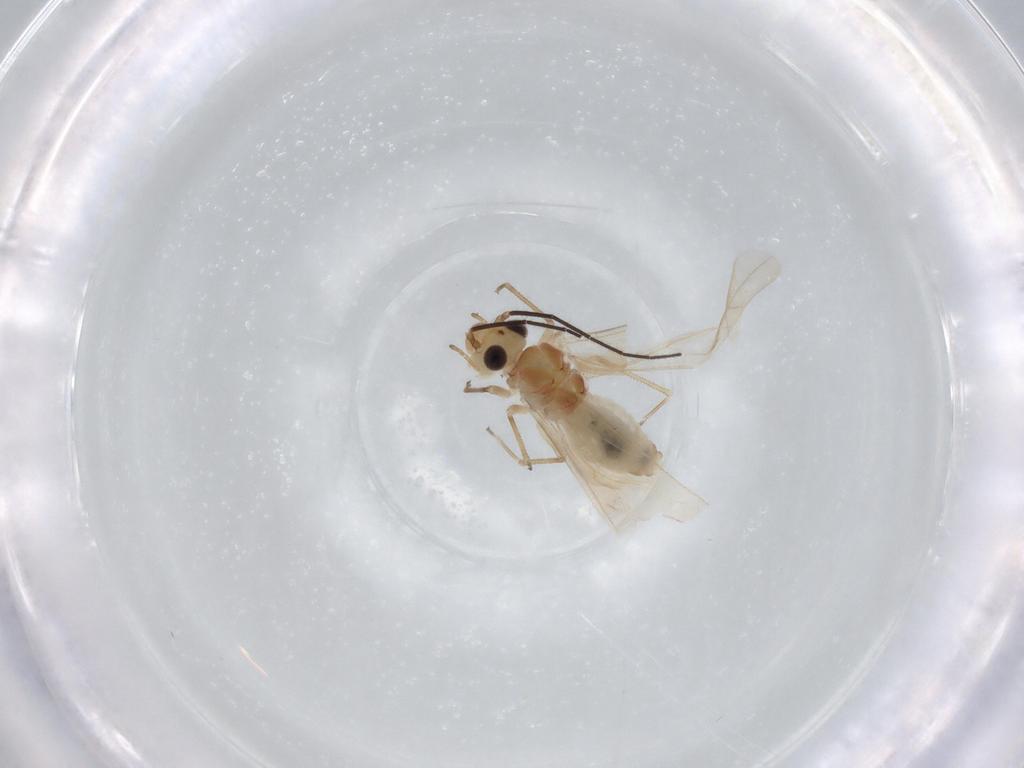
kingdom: Animalia
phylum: Arthropoda
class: Insecta
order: Psocodea
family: Caeciliusidae
